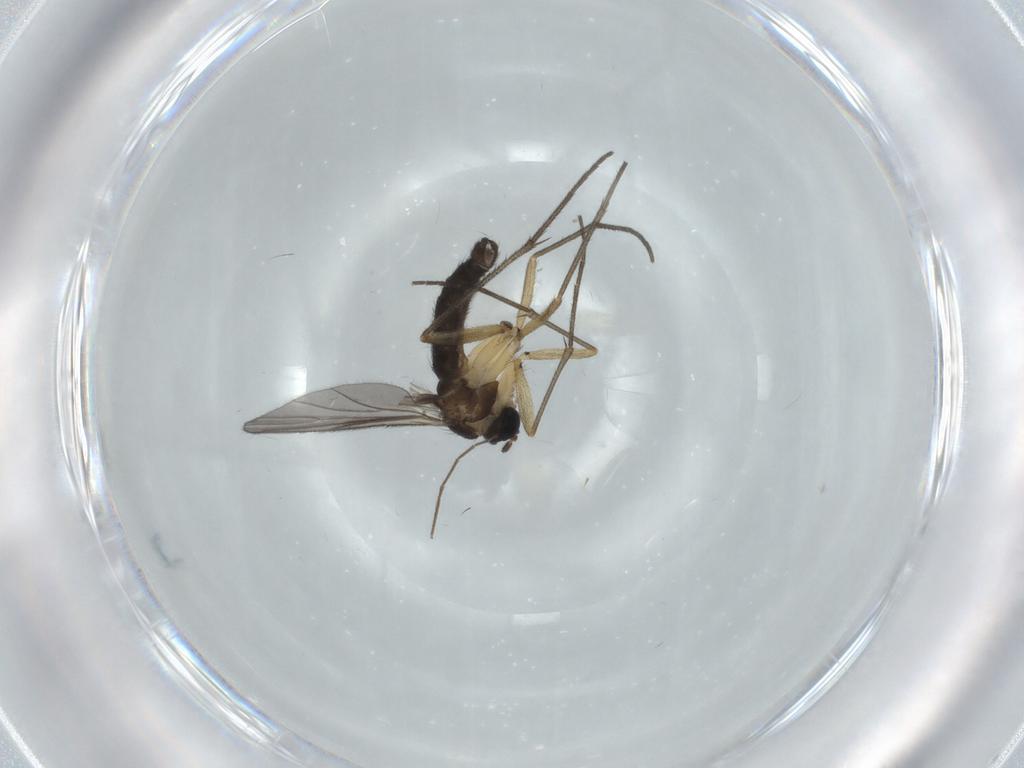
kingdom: Animalia
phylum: Arthropoda
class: Insecta
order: Diptera
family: Sciaridae
